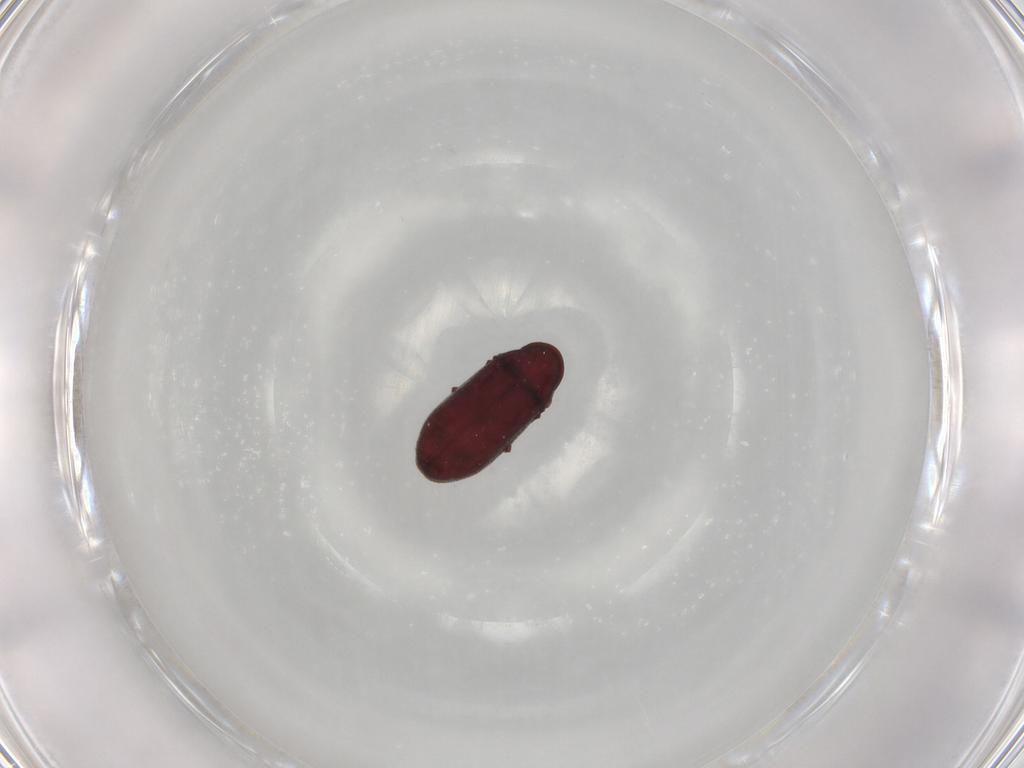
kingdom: Animalia
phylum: Arthropoda
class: Insecta
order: Coleoptera
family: Ptinidae
